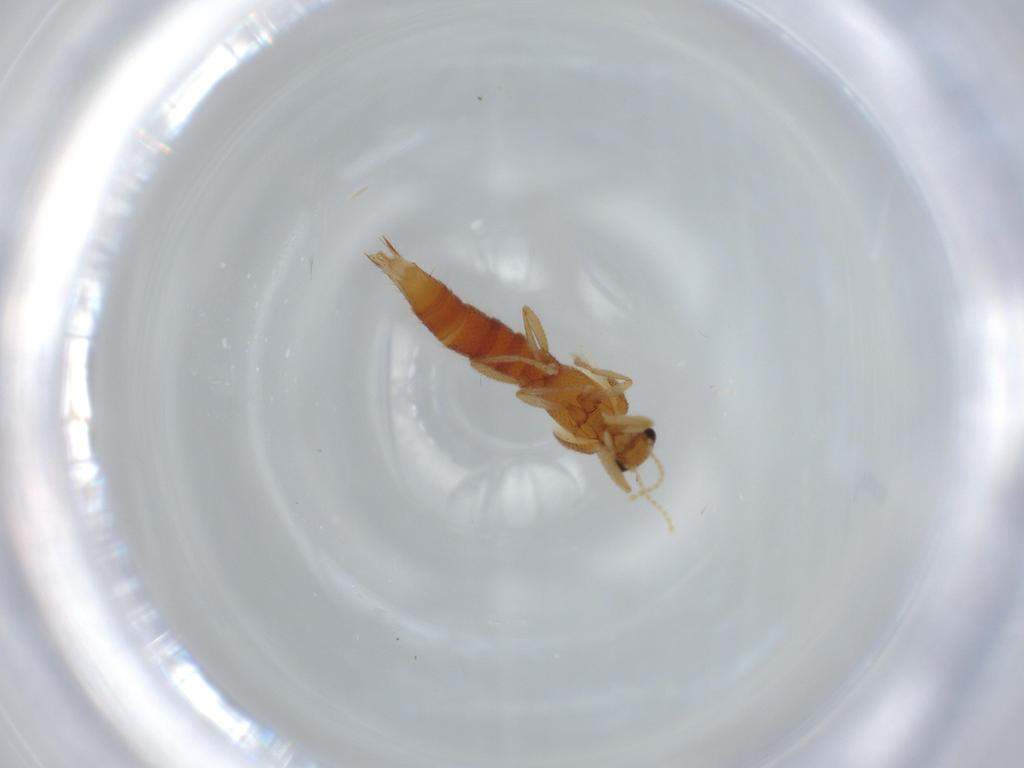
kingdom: Animalia
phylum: Arthropoda
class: Insecta
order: Coleoptera
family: Staphylinidae
